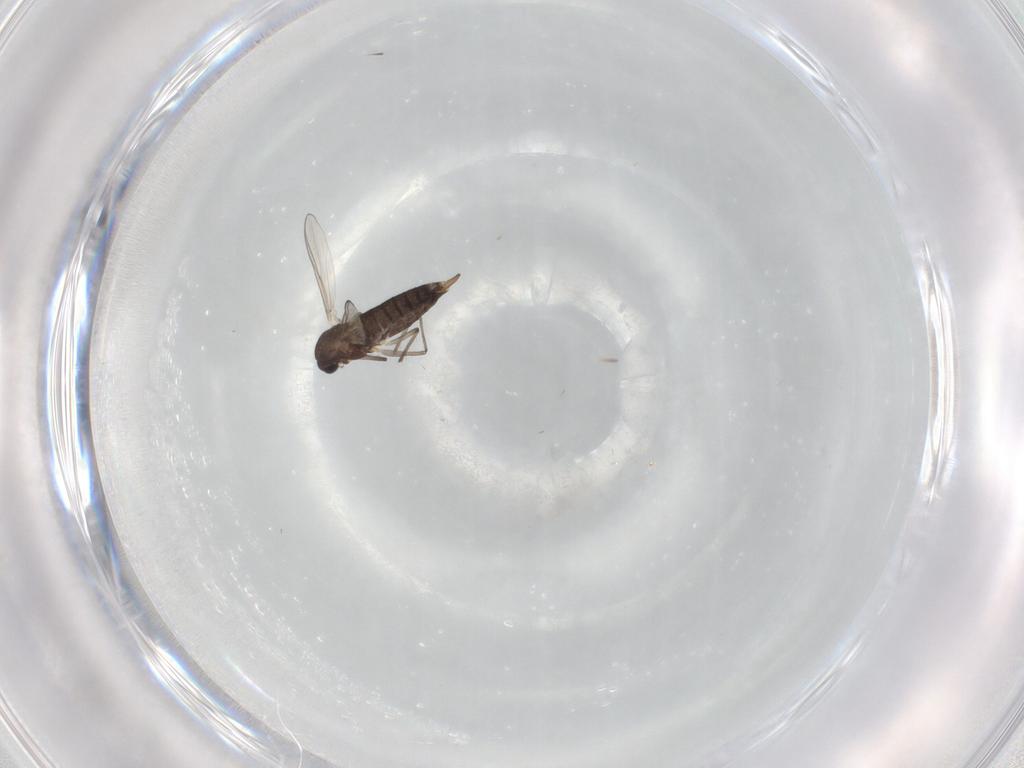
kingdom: Animalia
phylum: Arthropoda
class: Insecta
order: Diptera
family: Chironomidae
